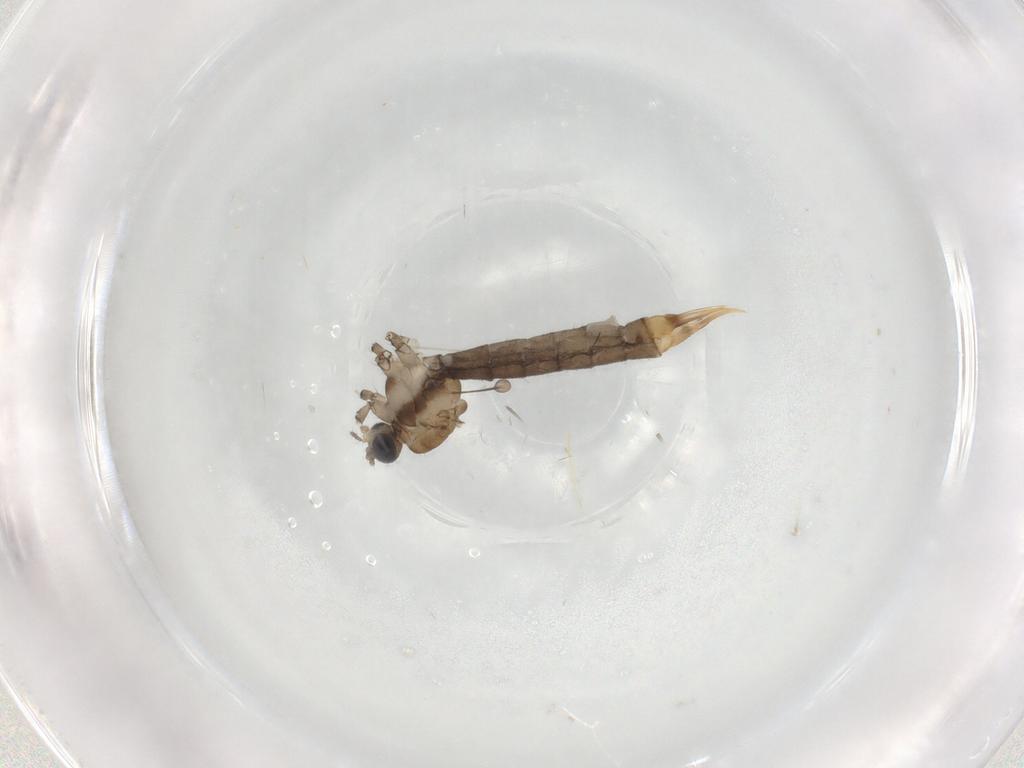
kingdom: Animalia
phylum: Arthropoda
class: Insecta
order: Diptera
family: Limoniidae
